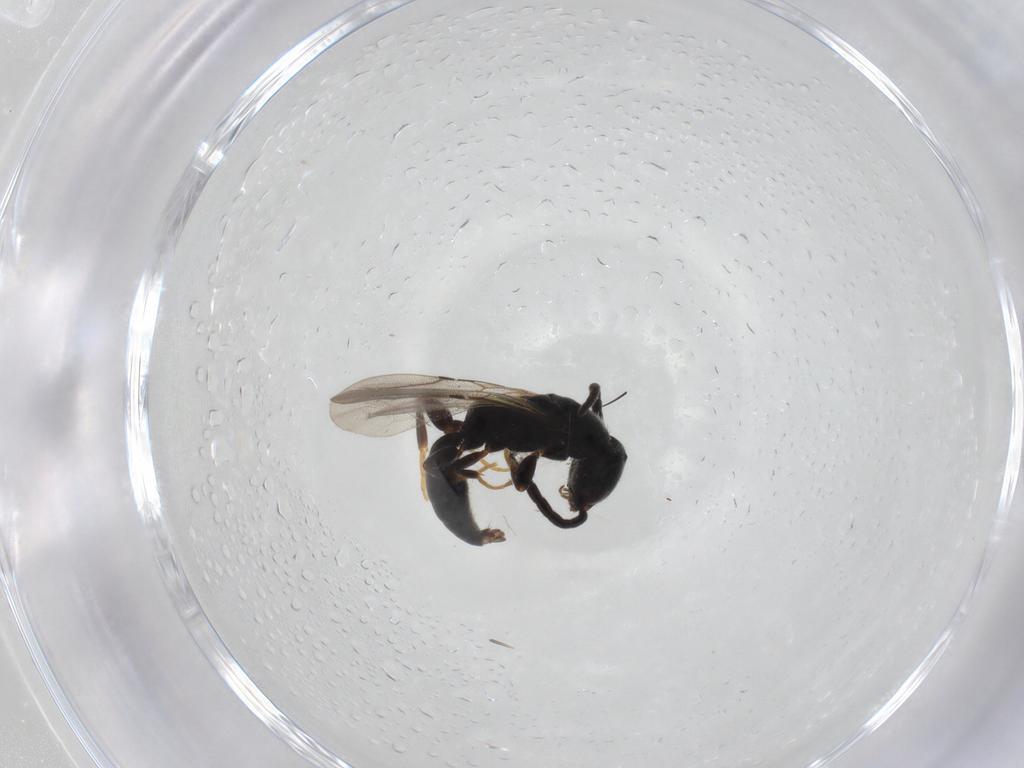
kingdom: Animalia
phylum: Arthropoda
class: Insecta
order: Hymenoptera
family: Bethylidae
